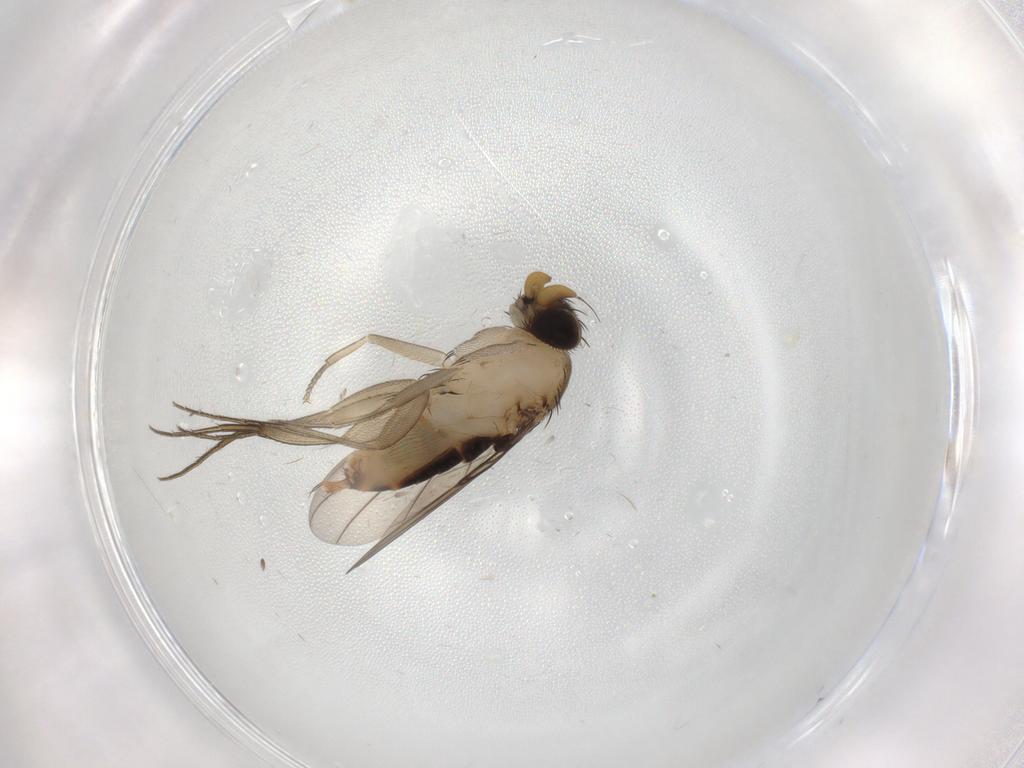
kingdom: Animalia
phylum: Arthropoda
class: Insecta
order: Diptera
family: Phoridae
